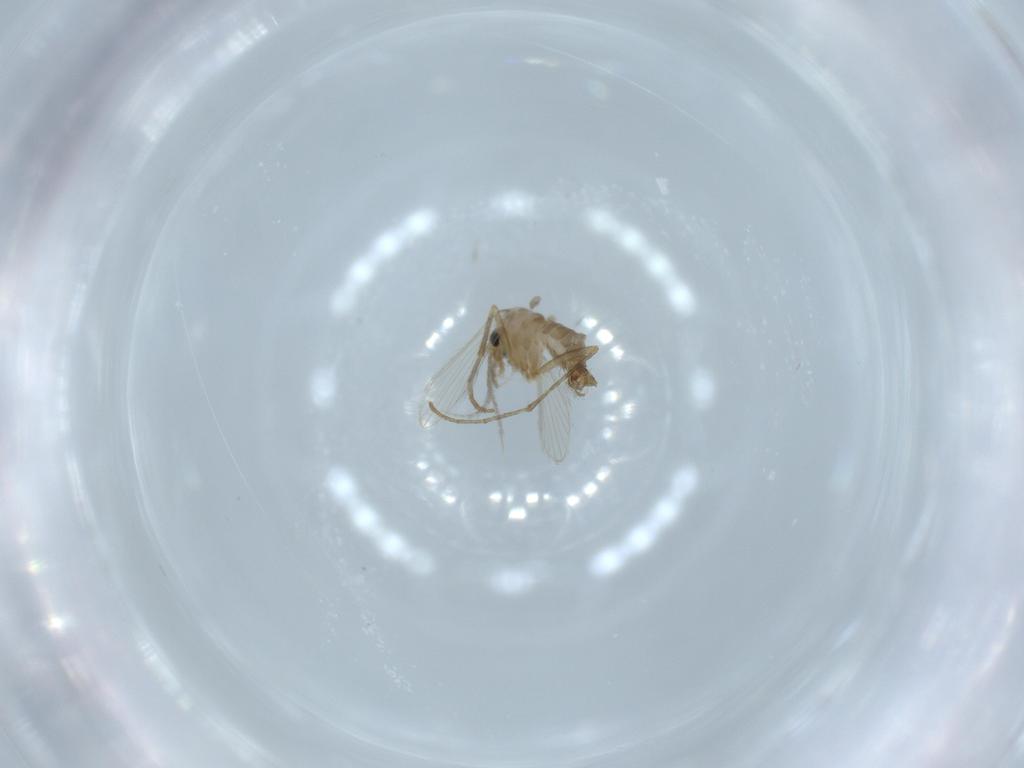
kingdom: Animalia
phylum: Arthropoda
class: Insecta
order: Diptera
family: Psychodidae
